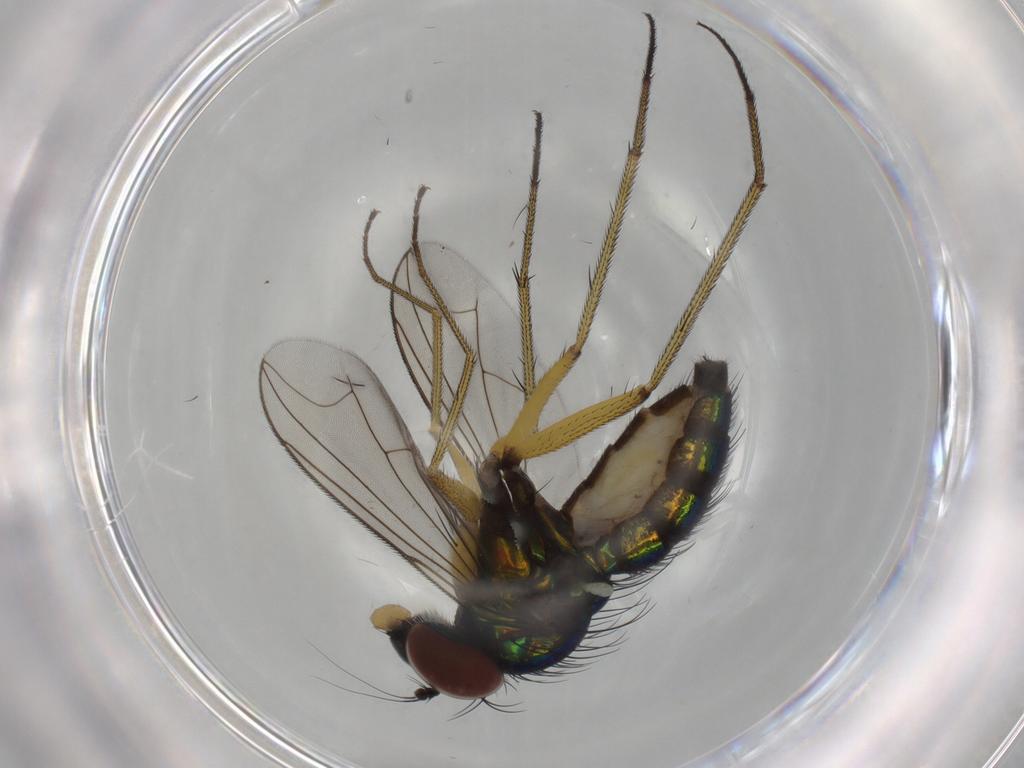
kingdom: Animalia
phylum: Arthropoda
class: Insecta
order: Diptera
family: Dolichopodidae
